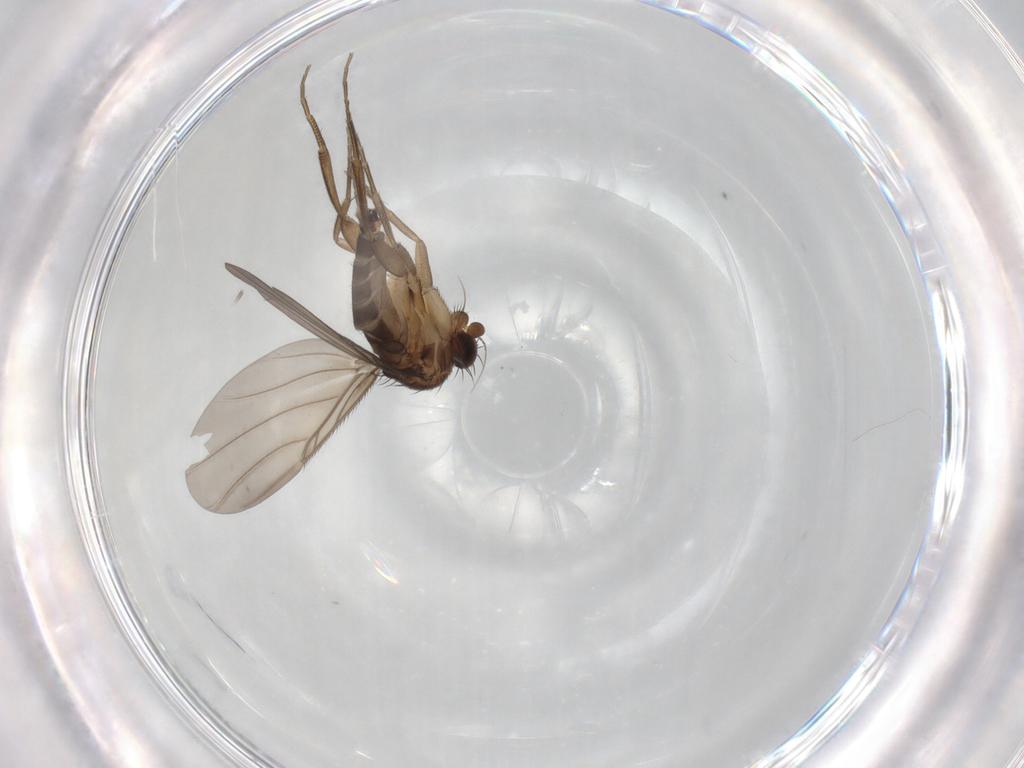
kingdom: Animalia
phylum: Arthropoda
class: Insecta
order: Diptera
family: Phoridae
